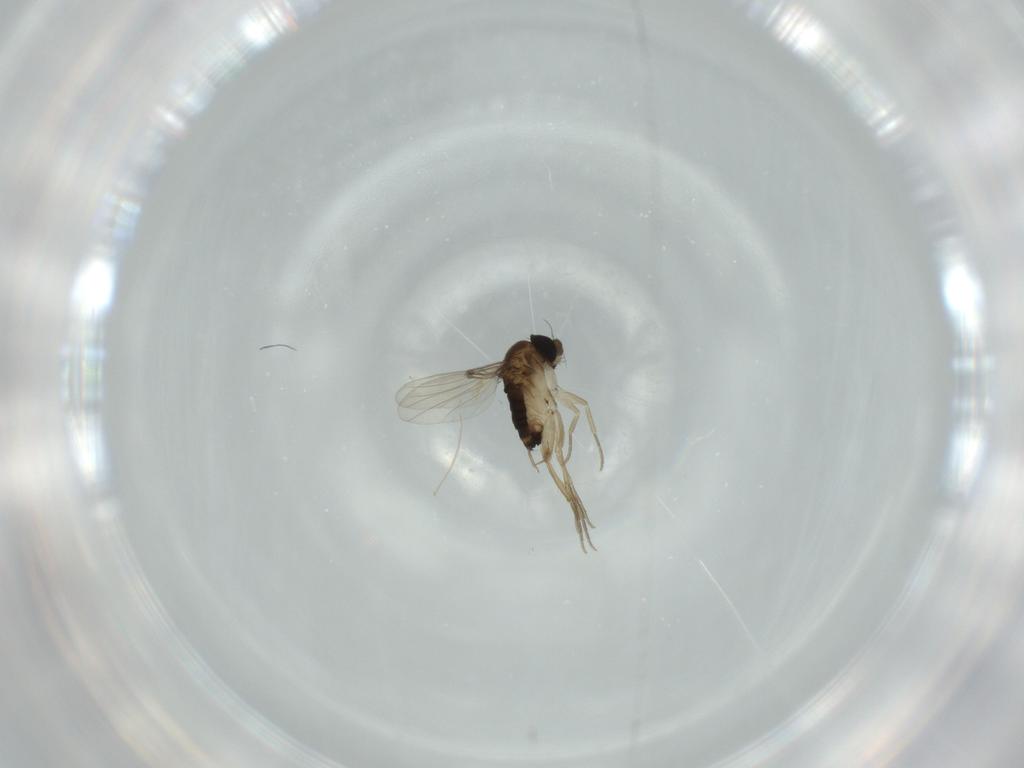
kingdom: Animalia
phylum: Arthropoda
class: Insecta
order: Diptera
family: Phoridae
